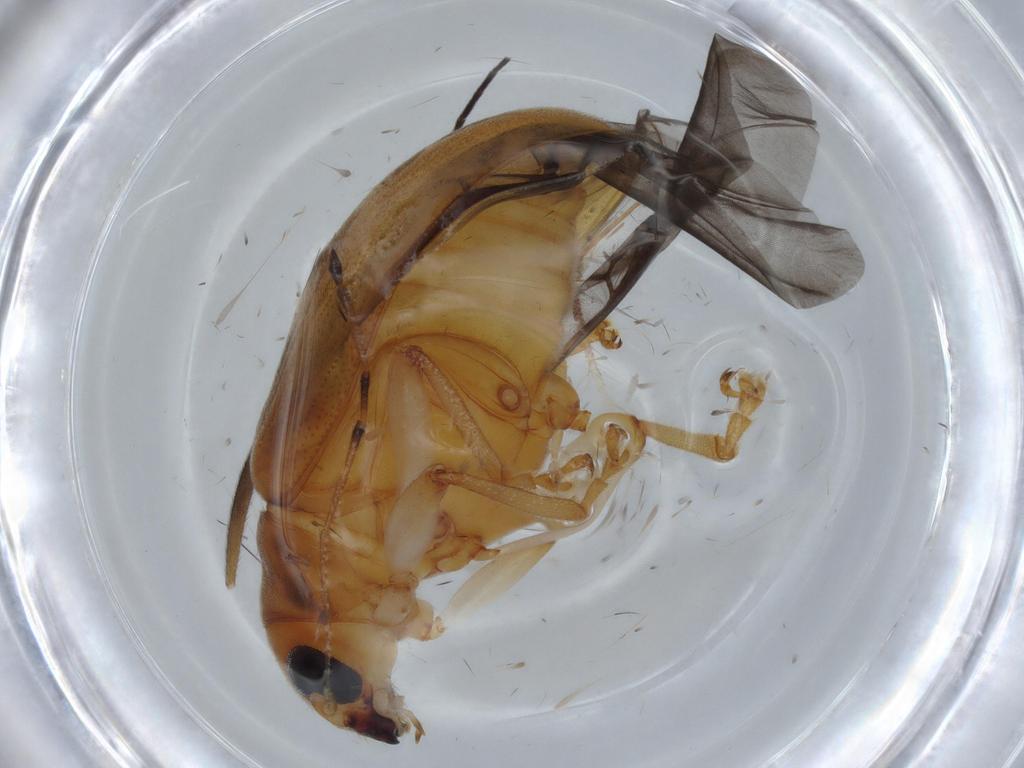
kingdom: Animalia
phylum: Arthropoda
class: Insecta
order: Coleoptera
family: Chrysomelidae
